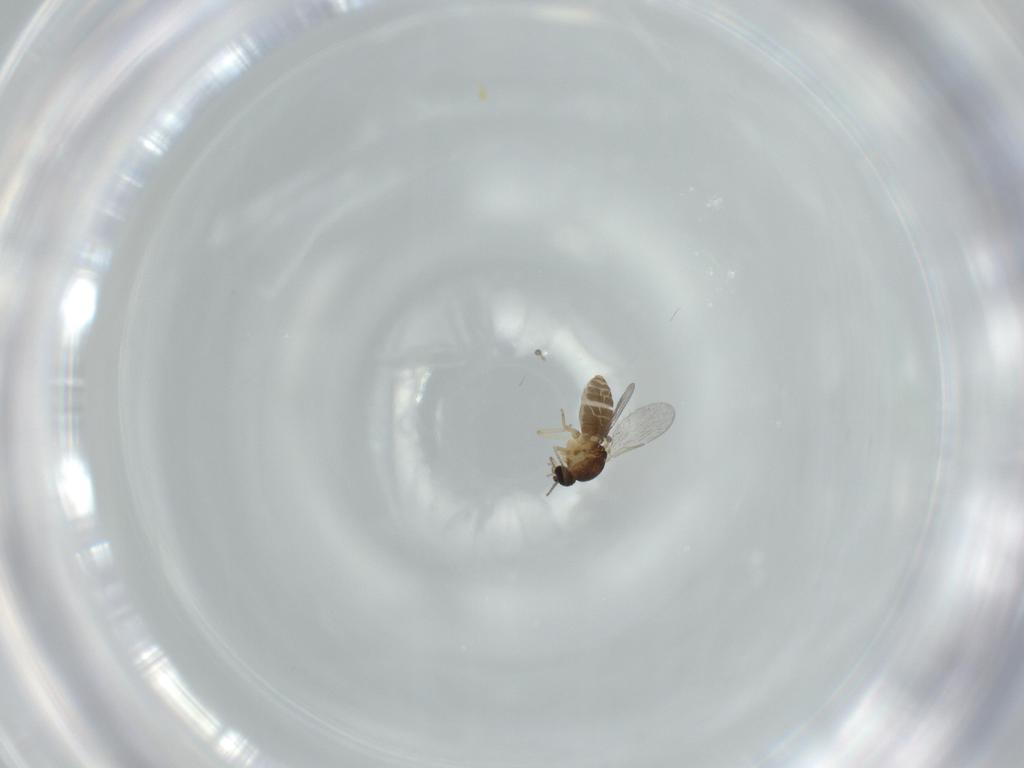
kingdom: Animalia
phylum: Arthropoda
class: Insecta
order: Diptera
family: Ceratopogonidae
